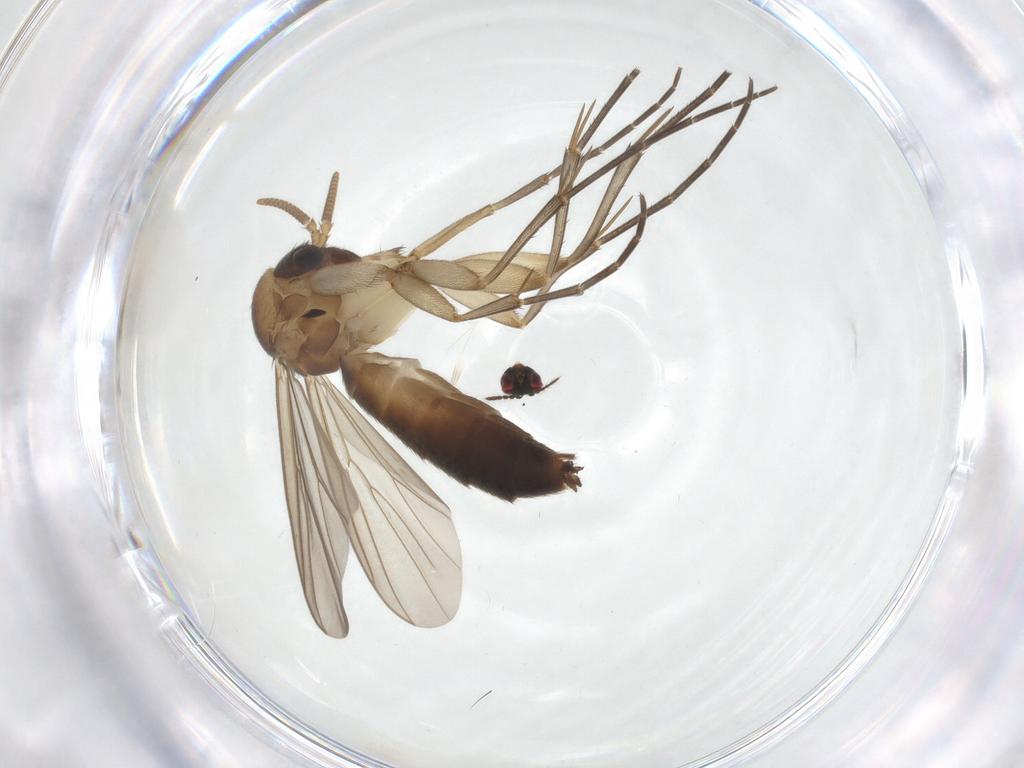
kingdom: Animalia
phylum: Arthropoda
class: Insecta
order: Diptera
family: Mycetophilidae
